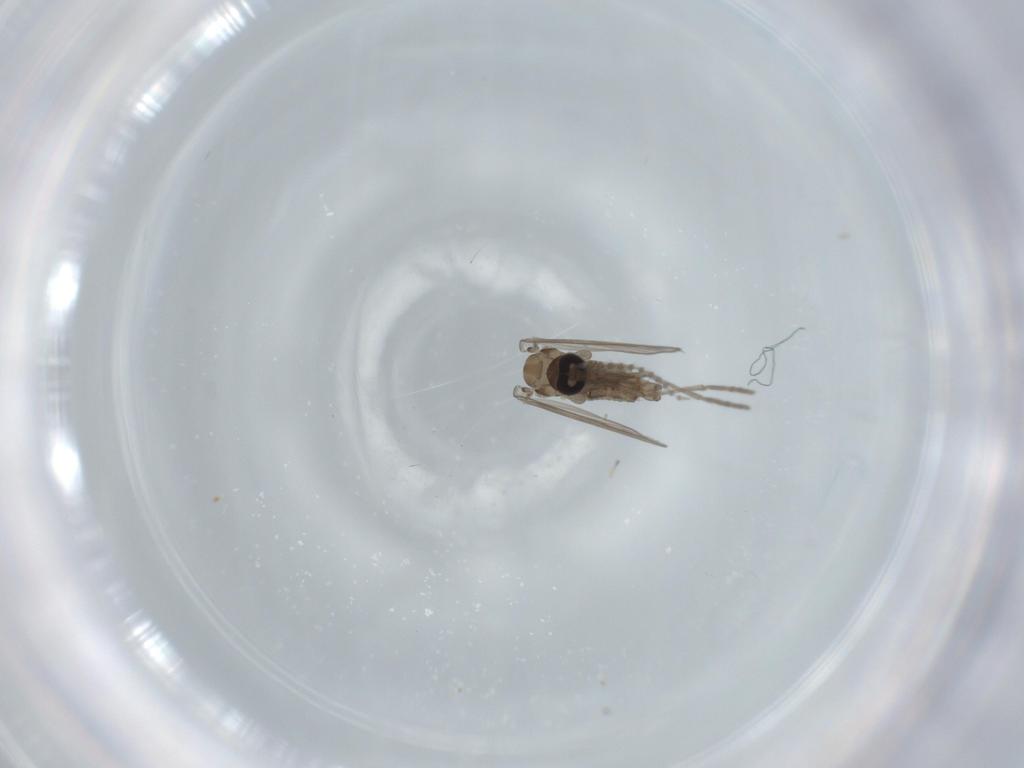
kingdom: Animalia
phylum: Arthropoda
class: Insecta
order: Diptera
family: Psychodidae
